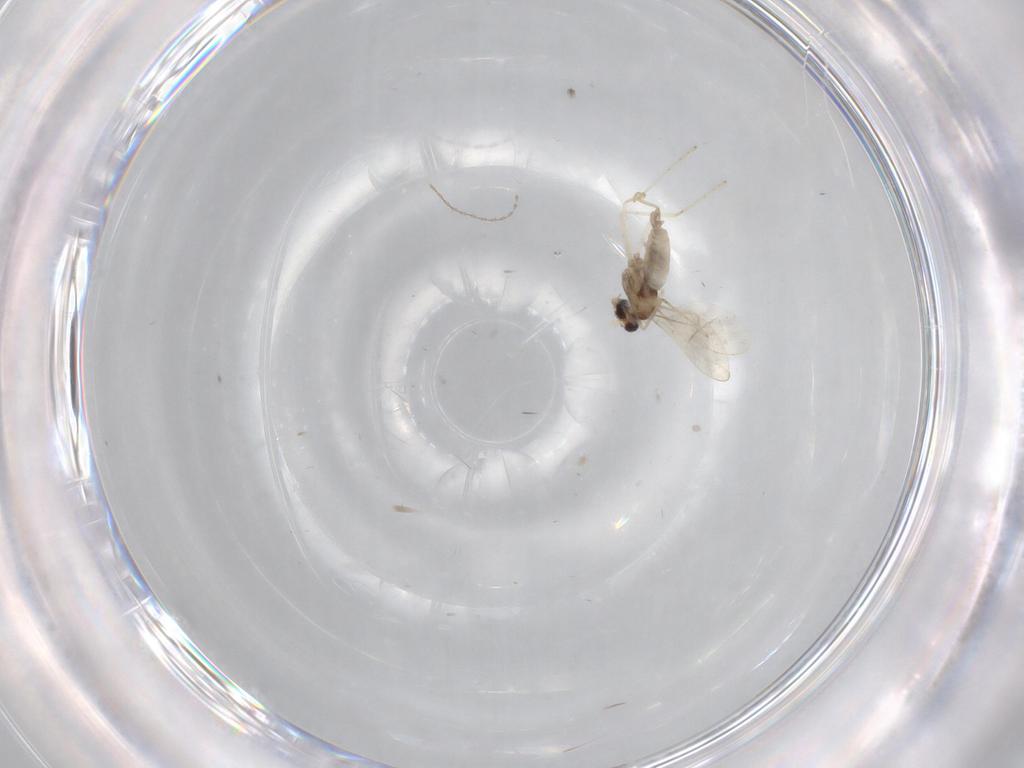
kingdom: Animalia
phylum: Arthropoda
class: Insecta
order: Diptera
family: Cecidomyiidae
